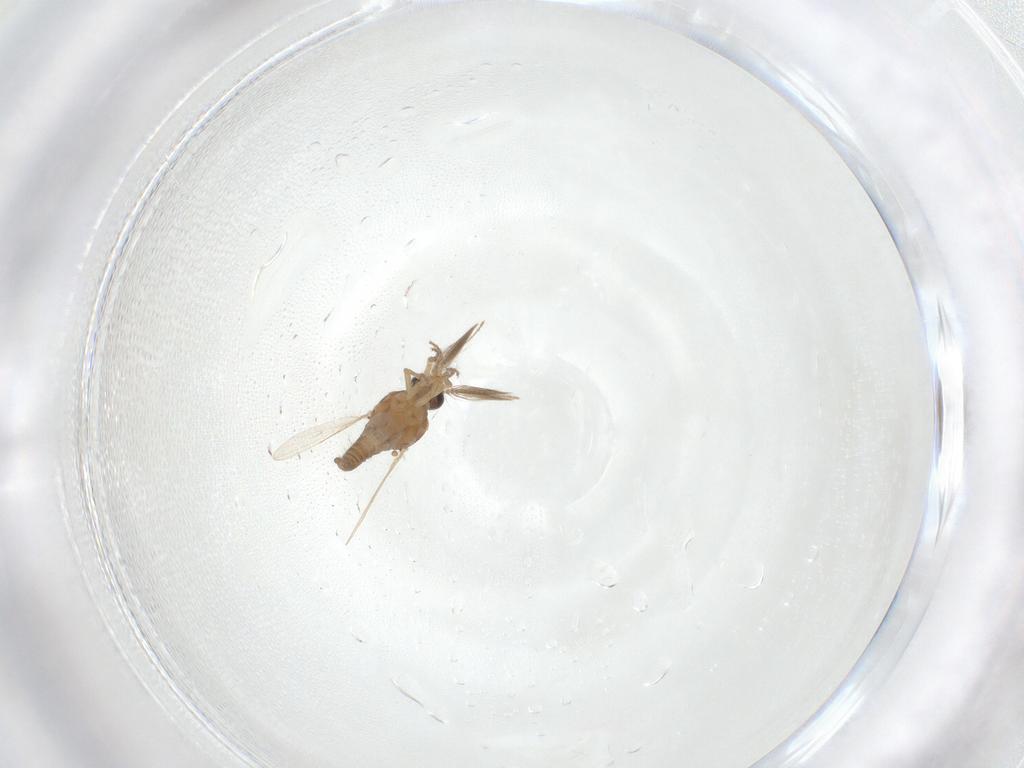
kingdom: Animalia
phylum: Arthropoda
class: Insecta
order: Diptera
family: Ceratopogonidae
